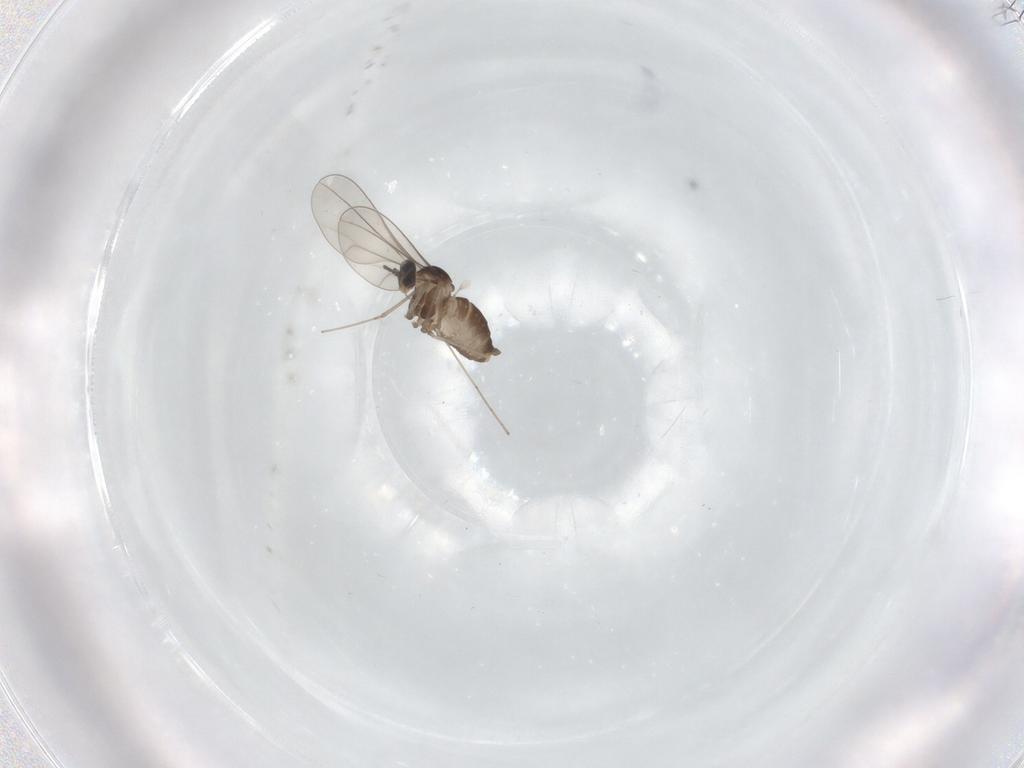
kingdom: Animalia
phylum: Arthropoda
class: Insecta
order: Diptera
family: Cecidomyiidae
